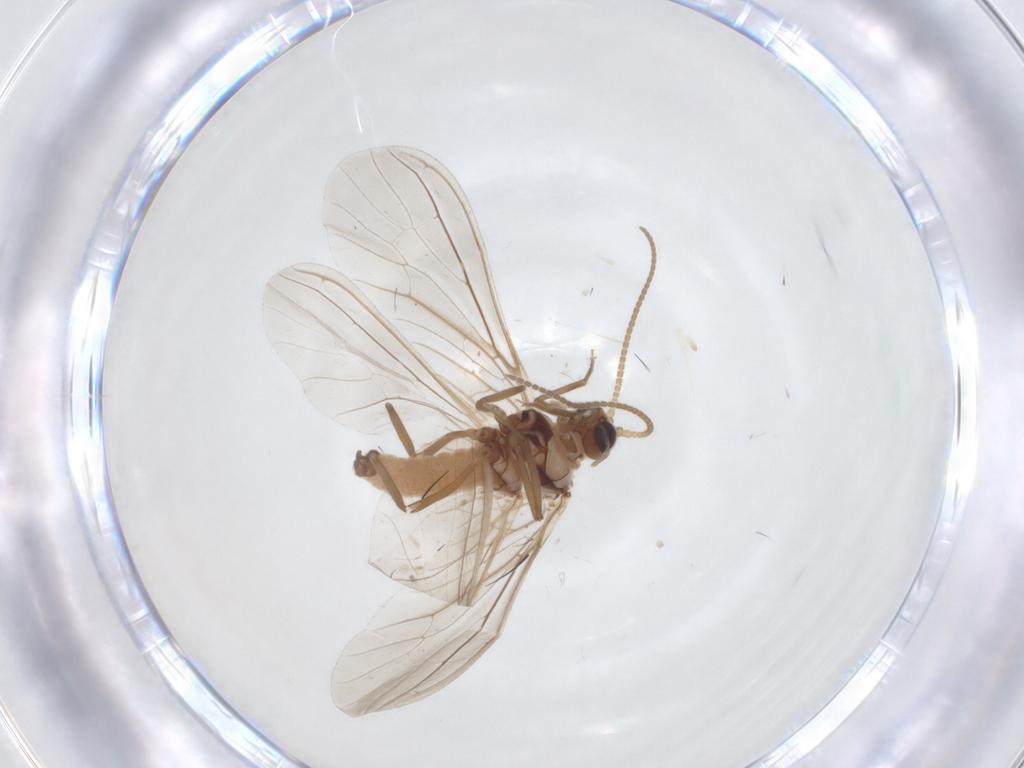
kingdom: Animalia
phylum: Arthropoda
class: Insecta
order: Neuroptera
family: Coniopterygidae
